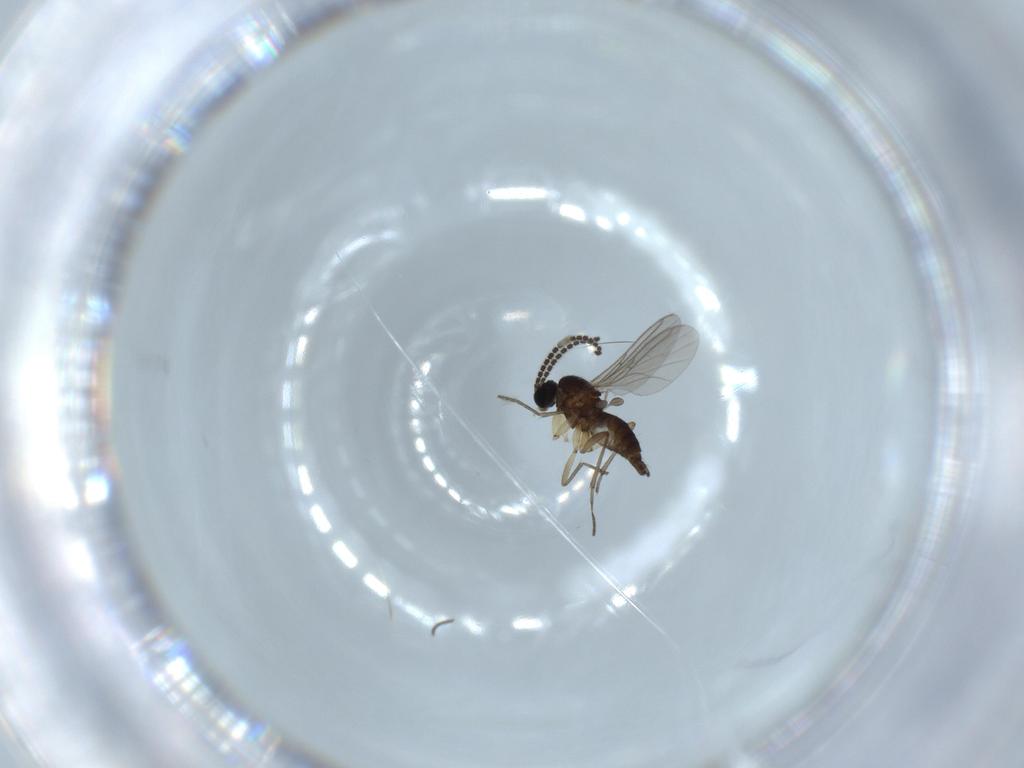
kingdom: Animalia
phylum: Arthropoda
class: Insecta
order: Diptera
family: Sciaridae
